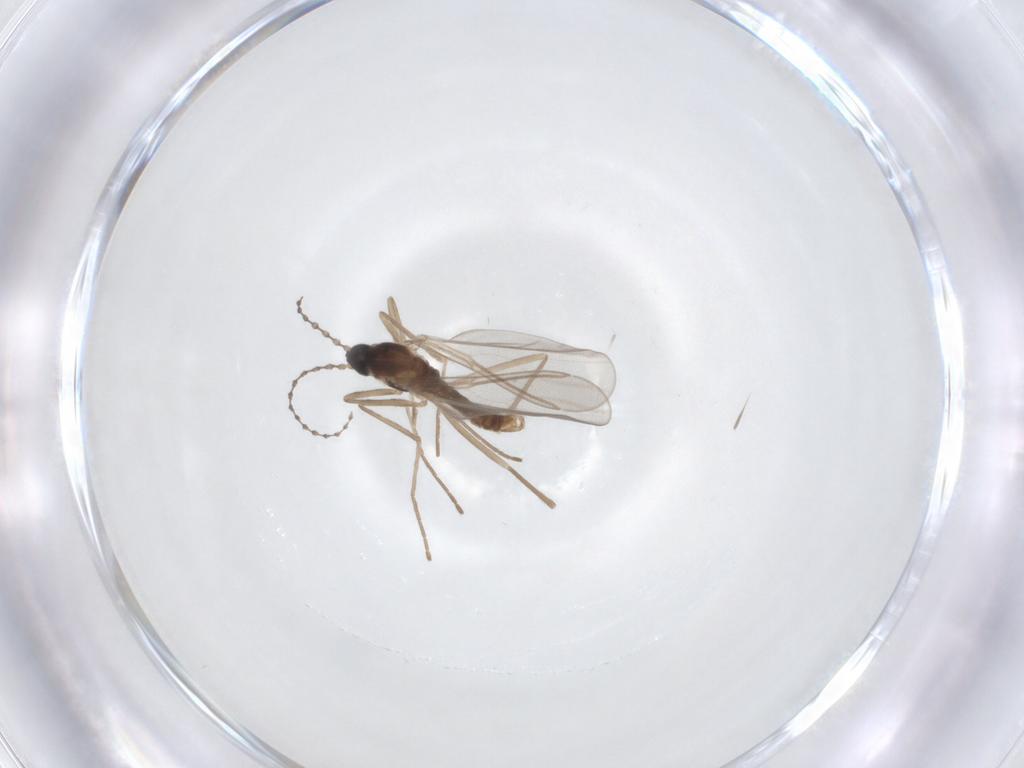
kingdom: Animalia
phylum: Arthropoda
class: Insecta
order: Diptera
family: Cecidomyiidae
